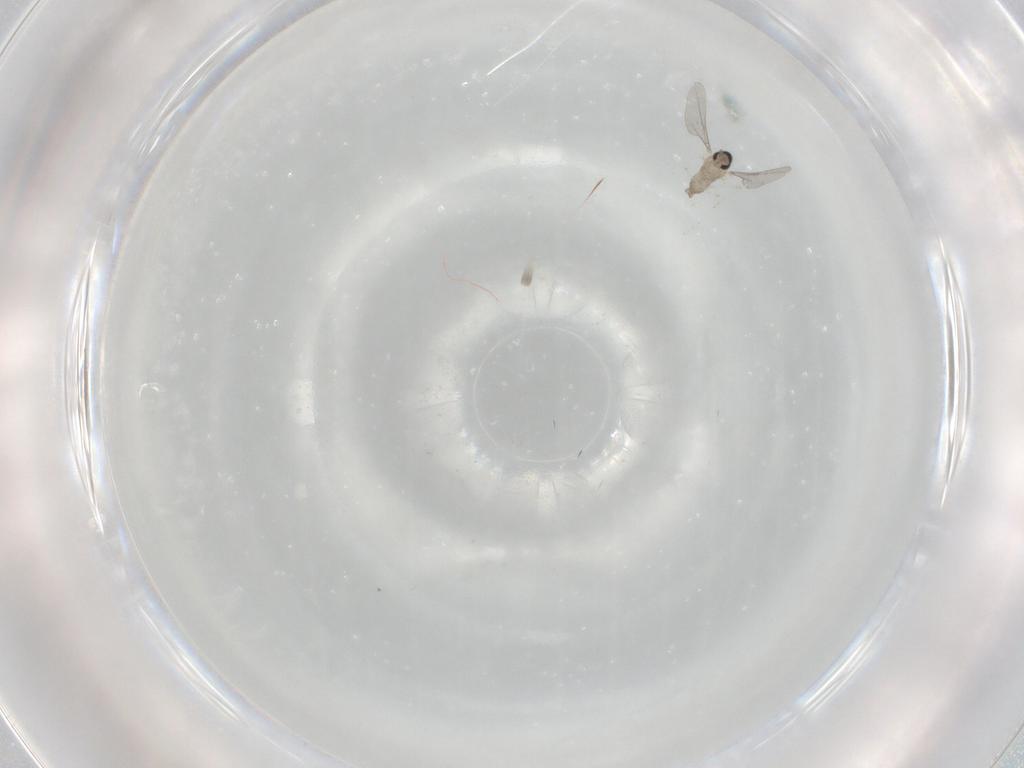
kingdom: Animalia
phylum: Arthropoda
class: Insecta
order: Diptera
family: Cecidomyiidae
